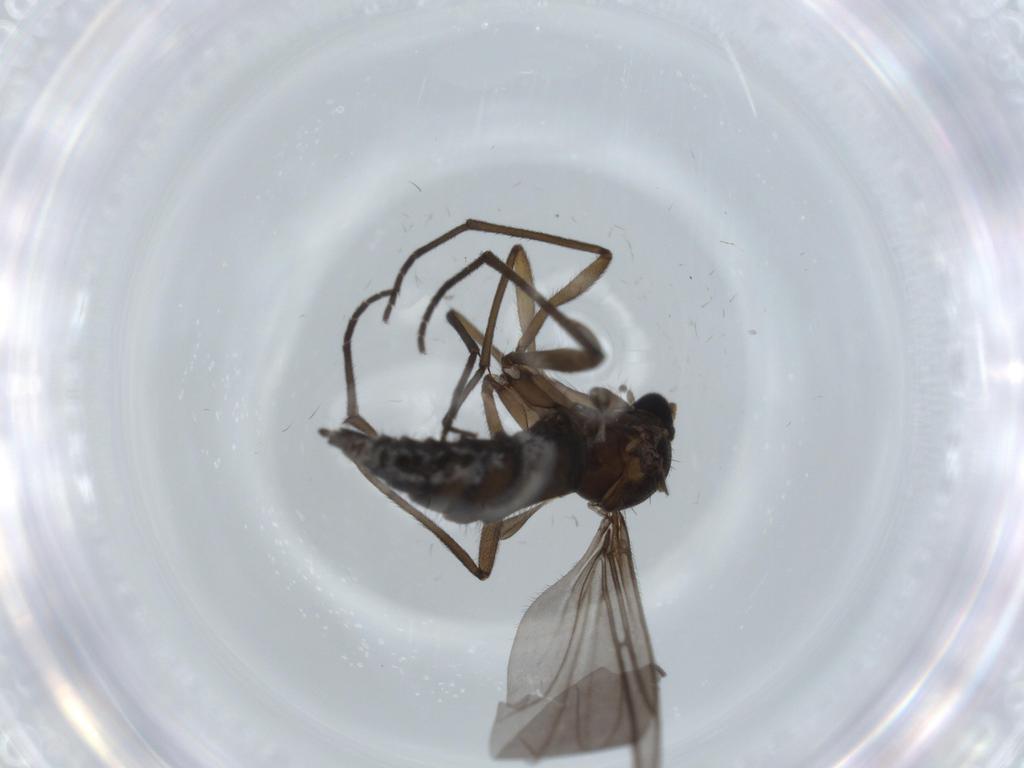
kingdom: Animalia
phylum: Arthropoda
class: Insecta
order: Diptera
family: Sciaridae
